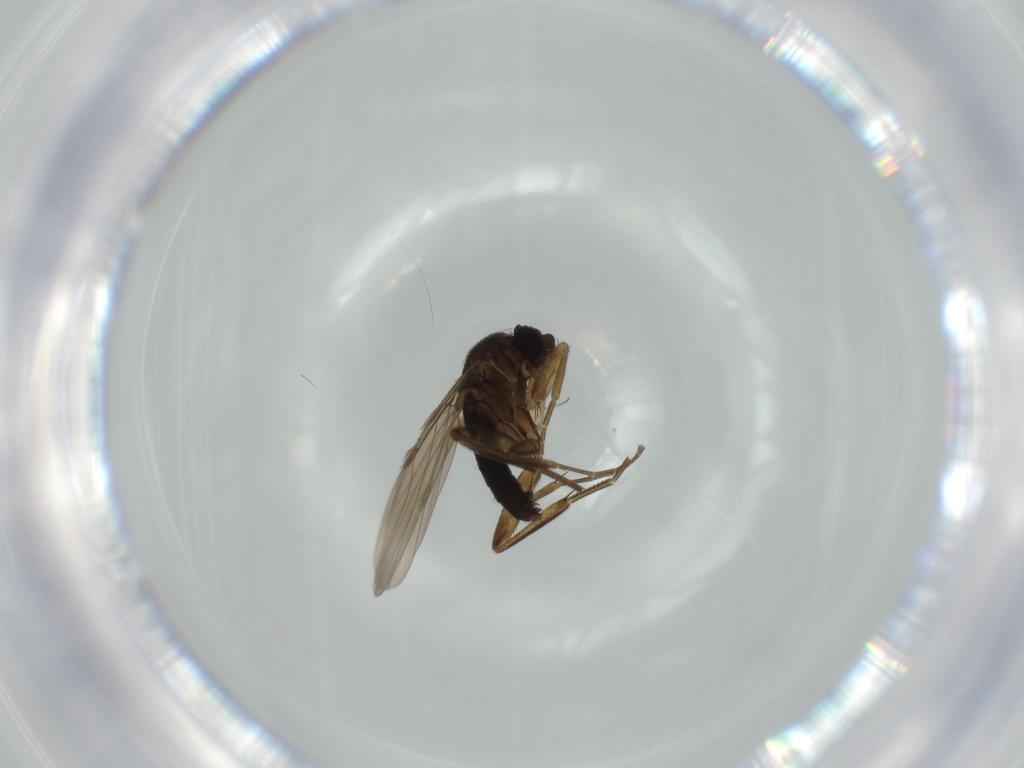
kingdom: Animalia
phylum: Arthropoda
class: Insecta
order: Diptera
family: Phoridae
